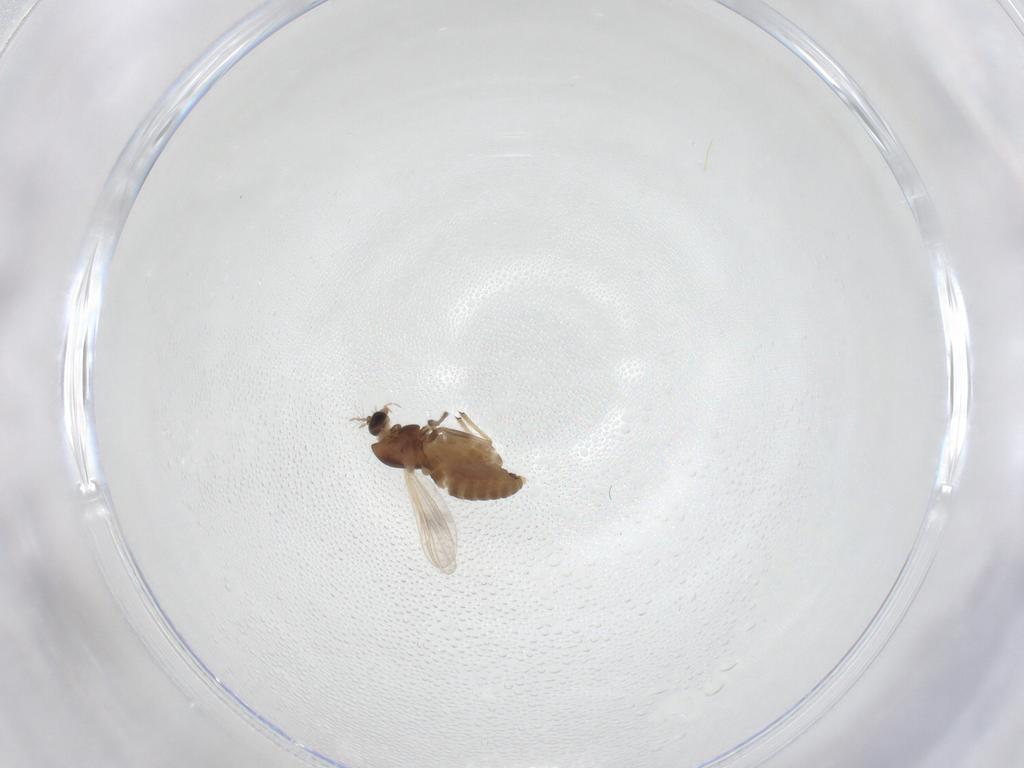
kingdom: Animalia
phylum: Arthropoda
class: Insecta
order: Diptera
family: Chironomidae
